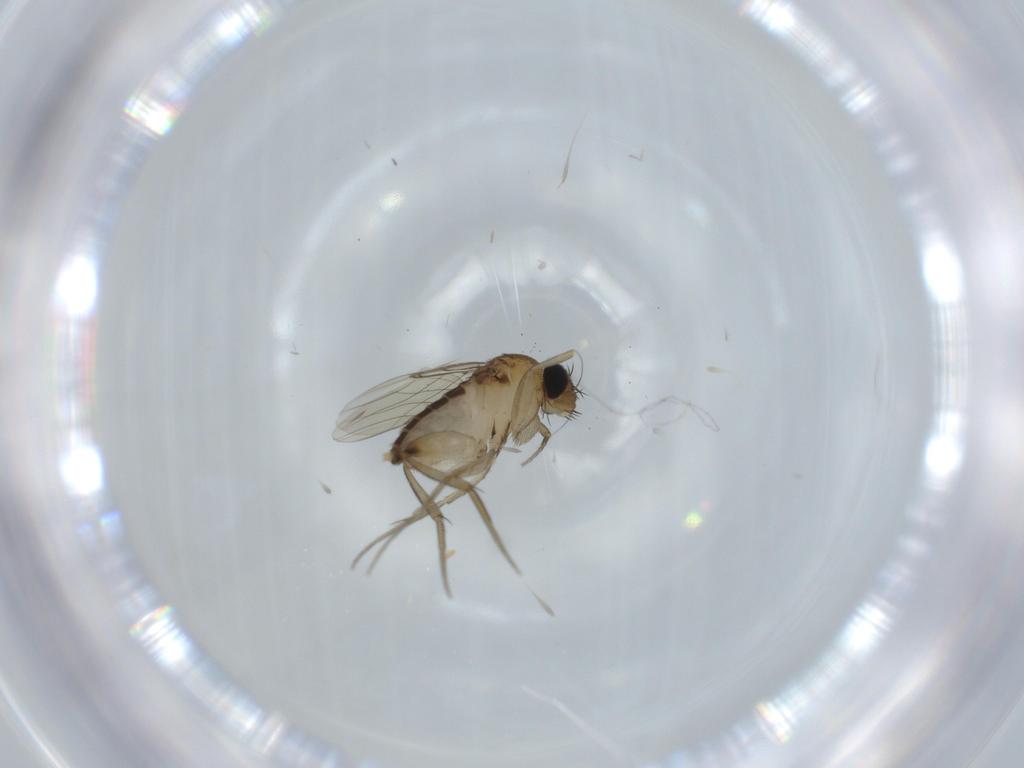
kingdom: Animalia
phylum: Arthropoda
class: Insecta
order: Diptera
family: Phoridae
